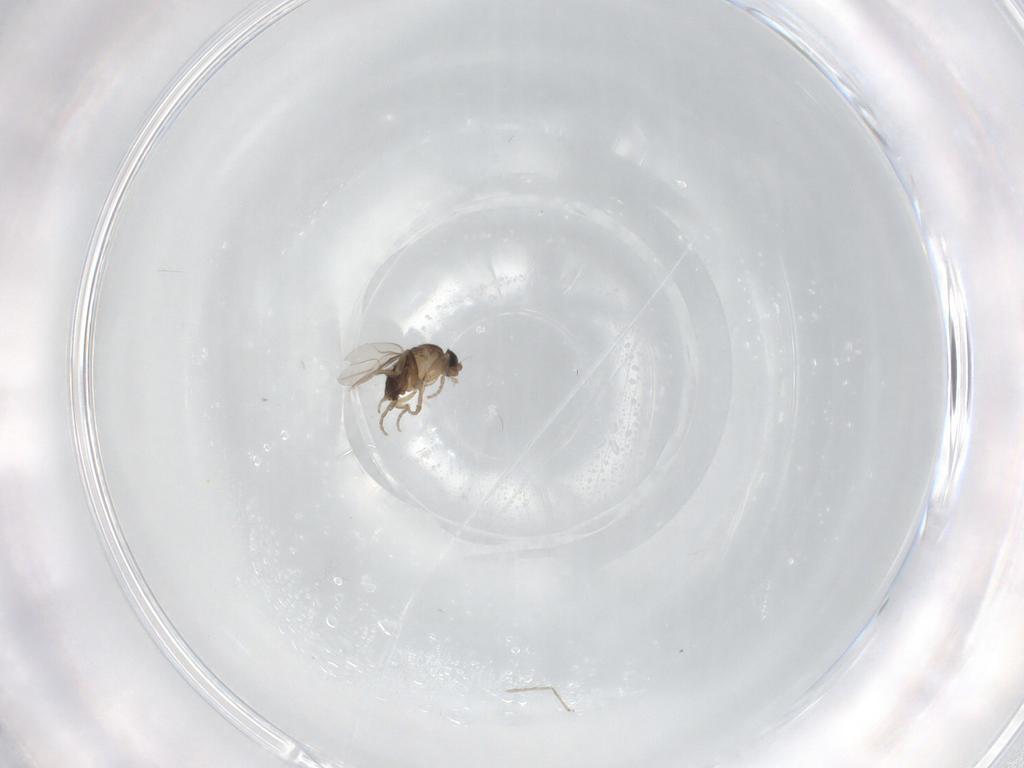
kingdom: Animalia
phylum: Arthropoda
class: Insecta
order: Diptera
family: Phoridae
